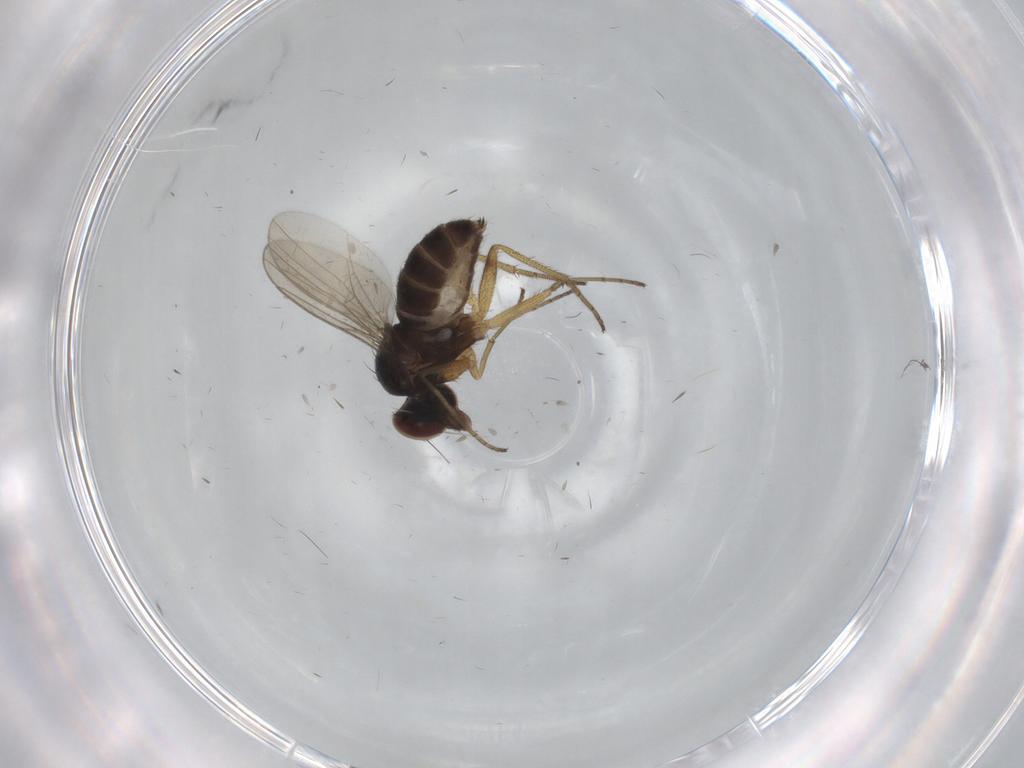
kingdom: Animalia
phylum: Arthropoda
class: Insecta
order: Diptera
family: Dolichopodidae
